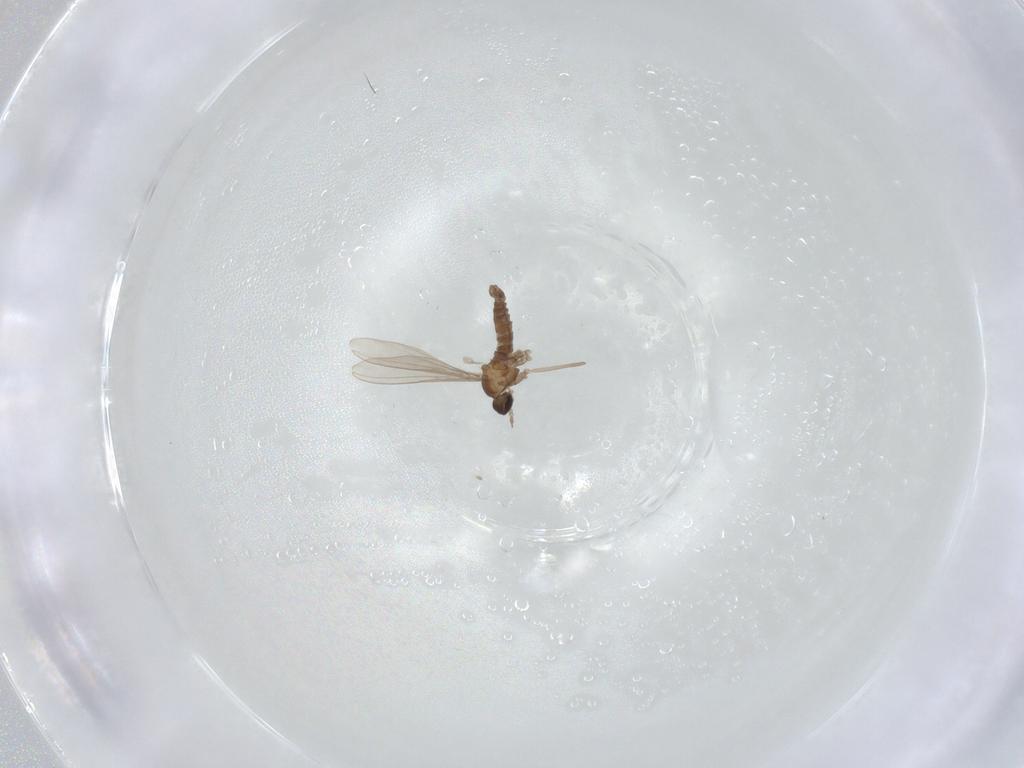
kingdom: Animalia
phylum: Arthropoda
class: Insecta
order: Diptera
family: Cecidomyiidae
